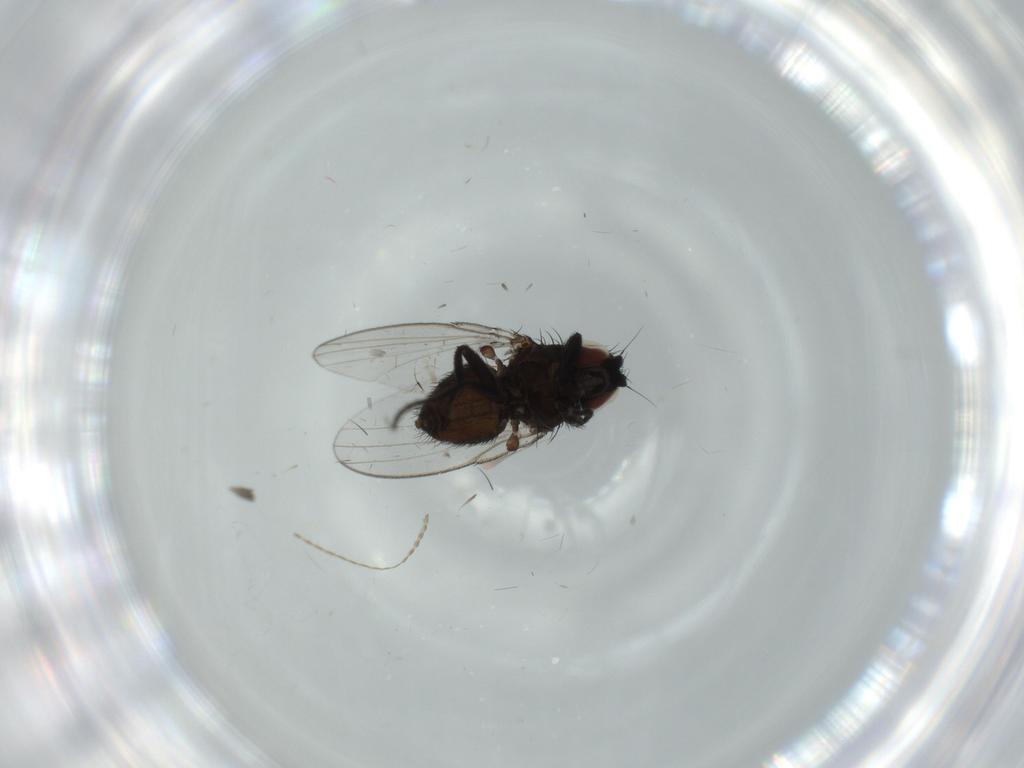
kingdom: Animalia
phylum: Arthropoda
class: Insecta
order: Diptera
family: Milichiidae
